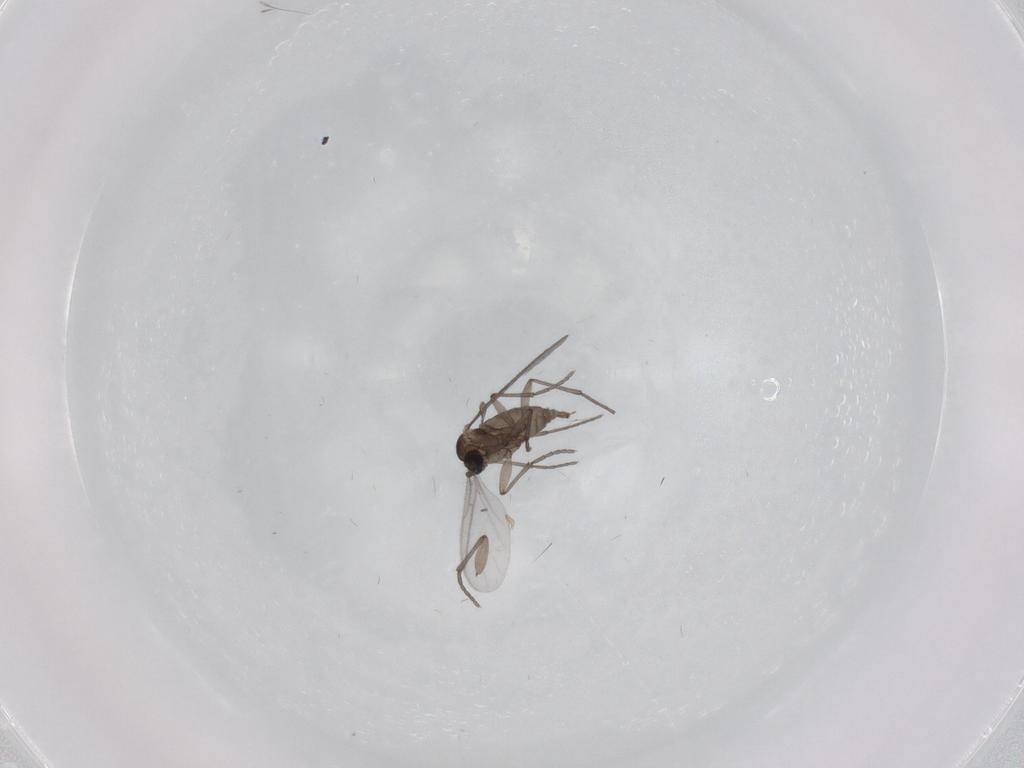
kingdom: Animalia
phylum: Arthropoda
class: Insecta
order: Diptera
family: Sciaridae
